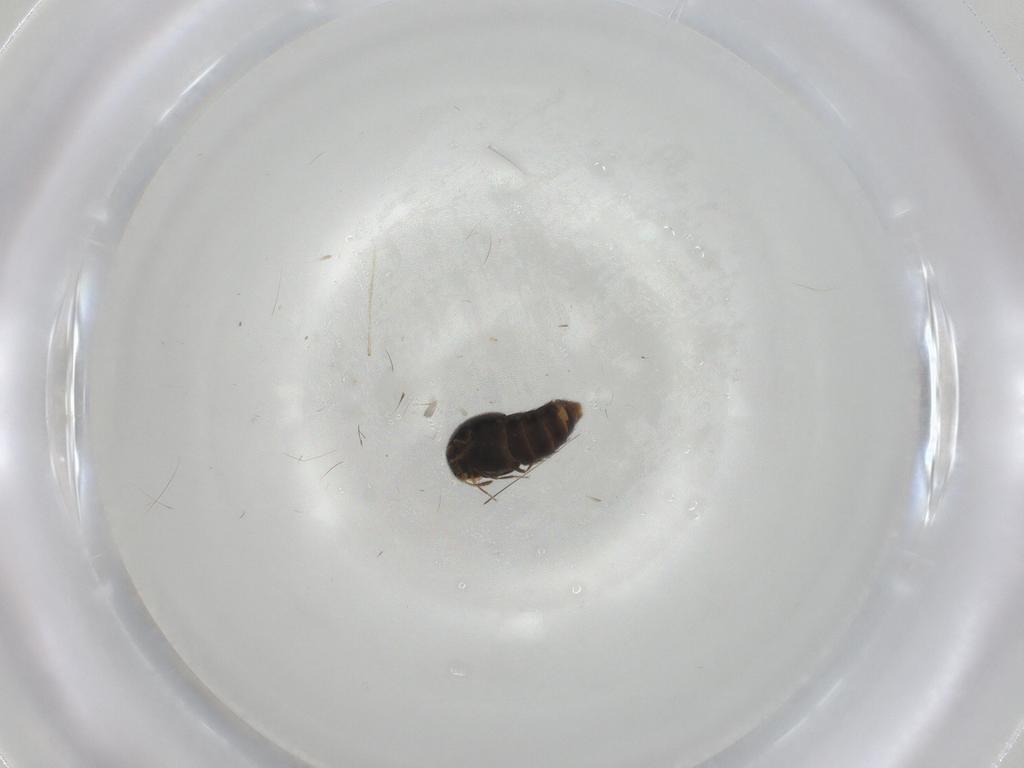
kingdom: Animalia
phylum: Arthropoda
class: Insecta
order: Coleoptera
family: Staphylinidae
